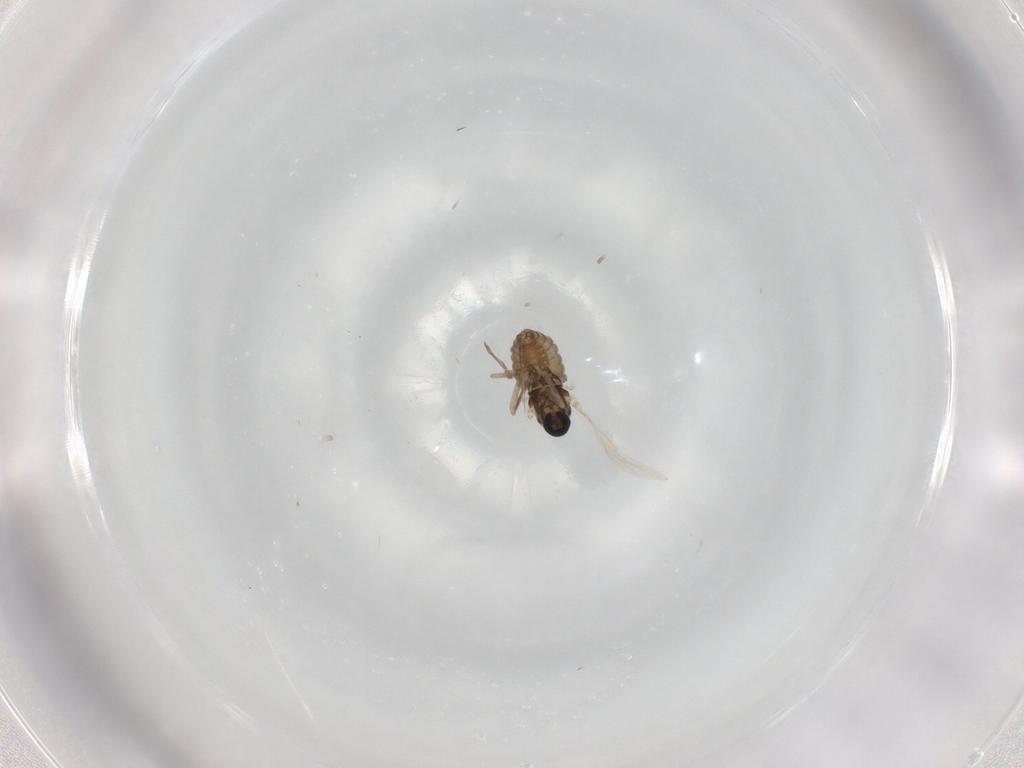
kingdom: Animalia
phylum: Arthropoda
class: Insecta
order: Diptera
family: Cecidomyiidae
